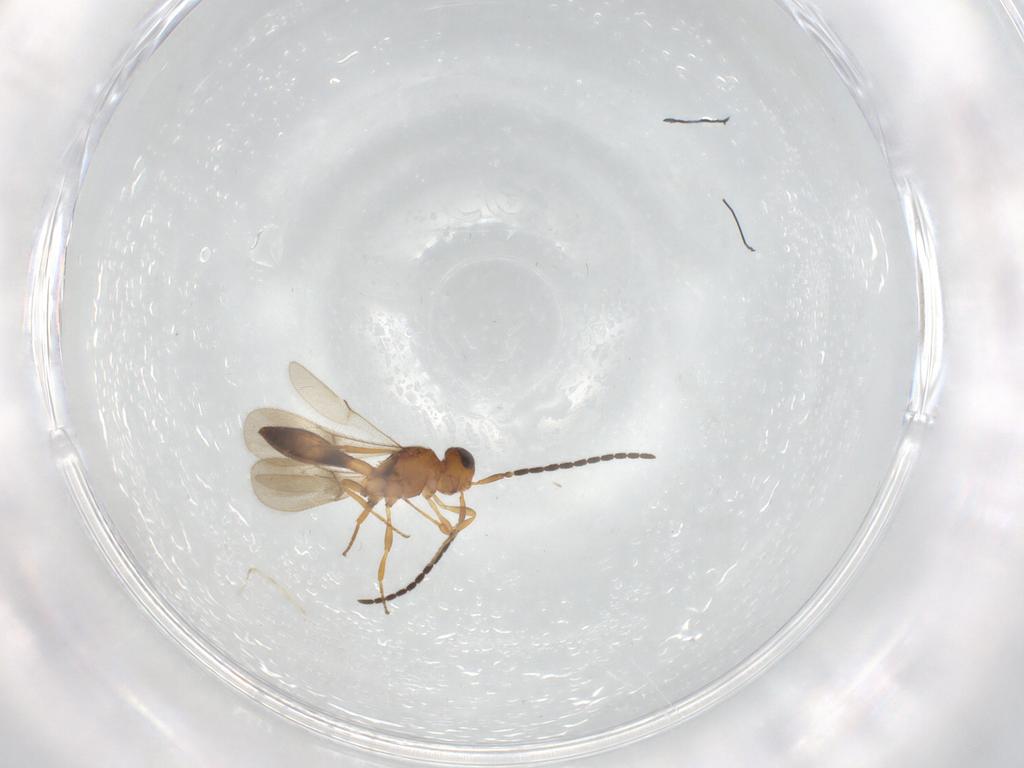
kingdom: Animalia
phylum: Arthropoda
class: Insecta
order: Hymenoptera
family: Scelionidae
